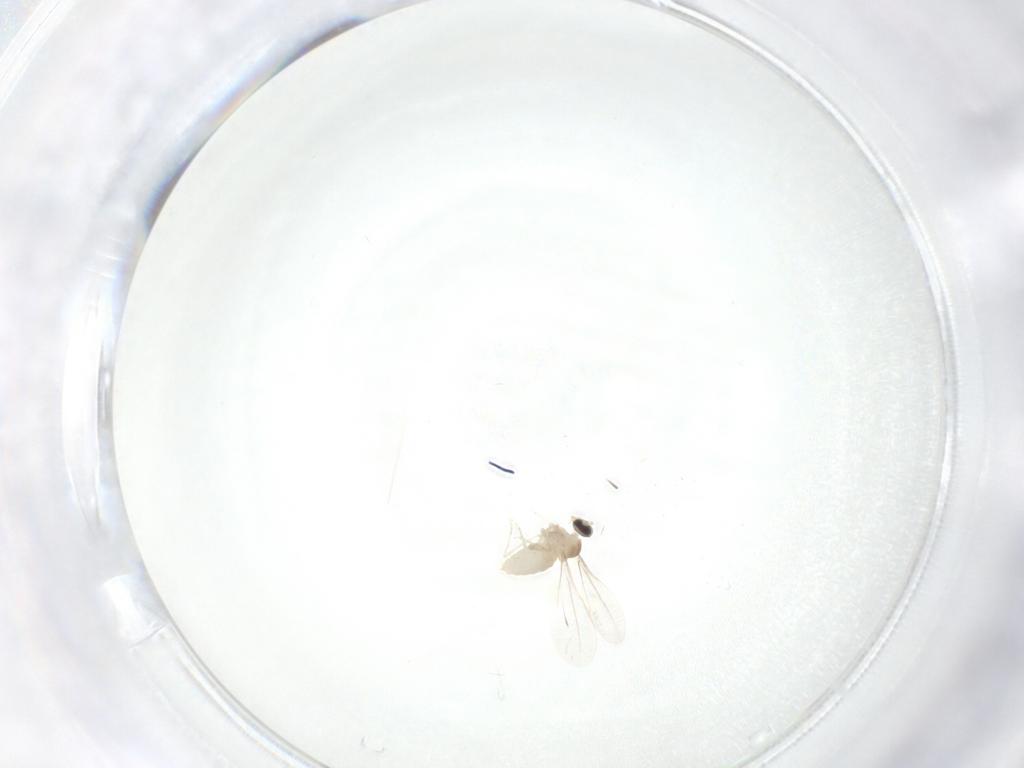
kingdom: Animalia
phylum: Arthropoda
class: Insecta
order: Diptera
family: Cecidomyiidae
